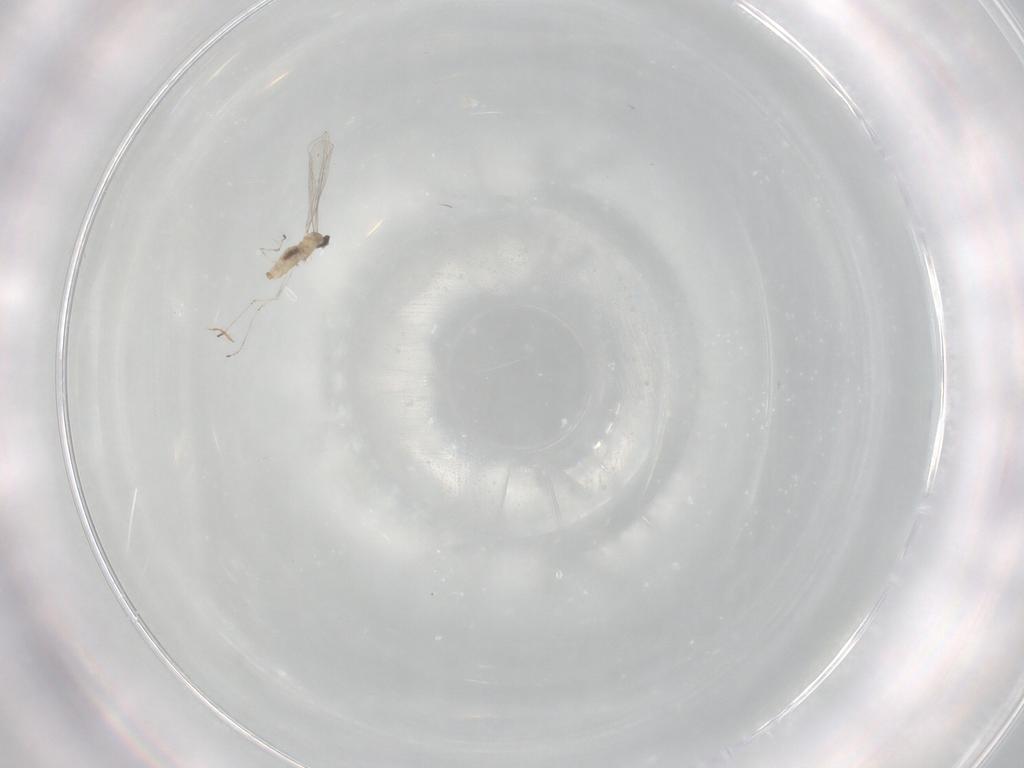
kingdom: Animalia
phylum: Arthropoda
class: Insecta
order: Diptera
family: Cecidomyiidae
